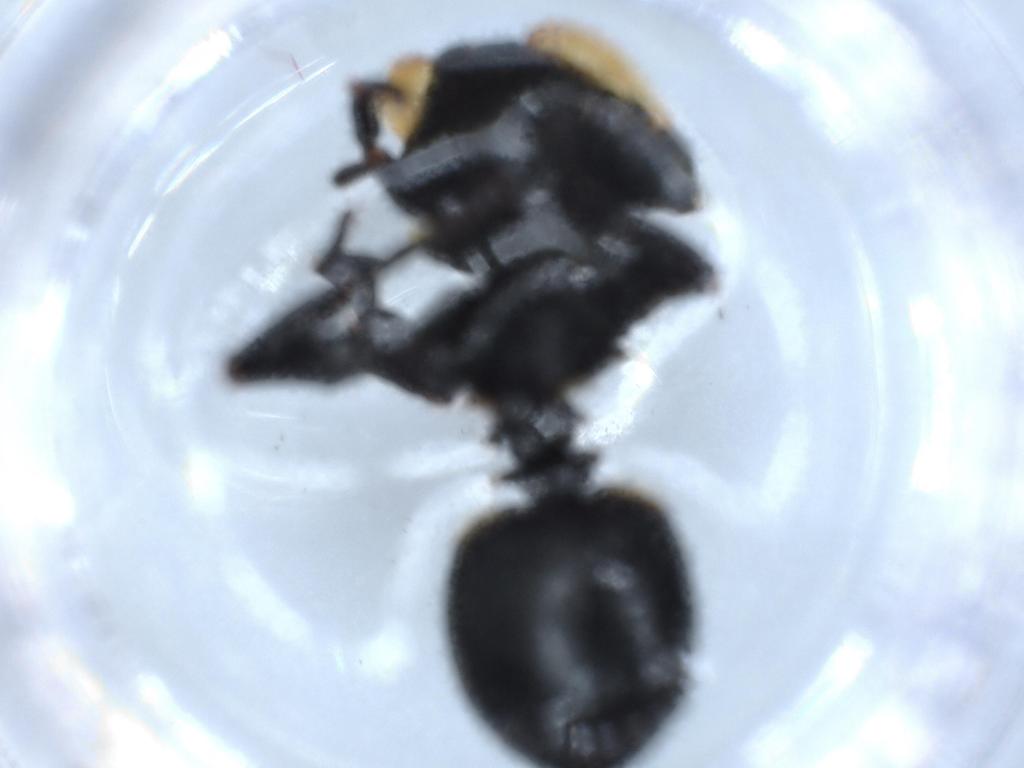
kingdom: Animalia
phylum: Arthropoda
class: Insecta
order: Hymenoptera
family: Formicidae
